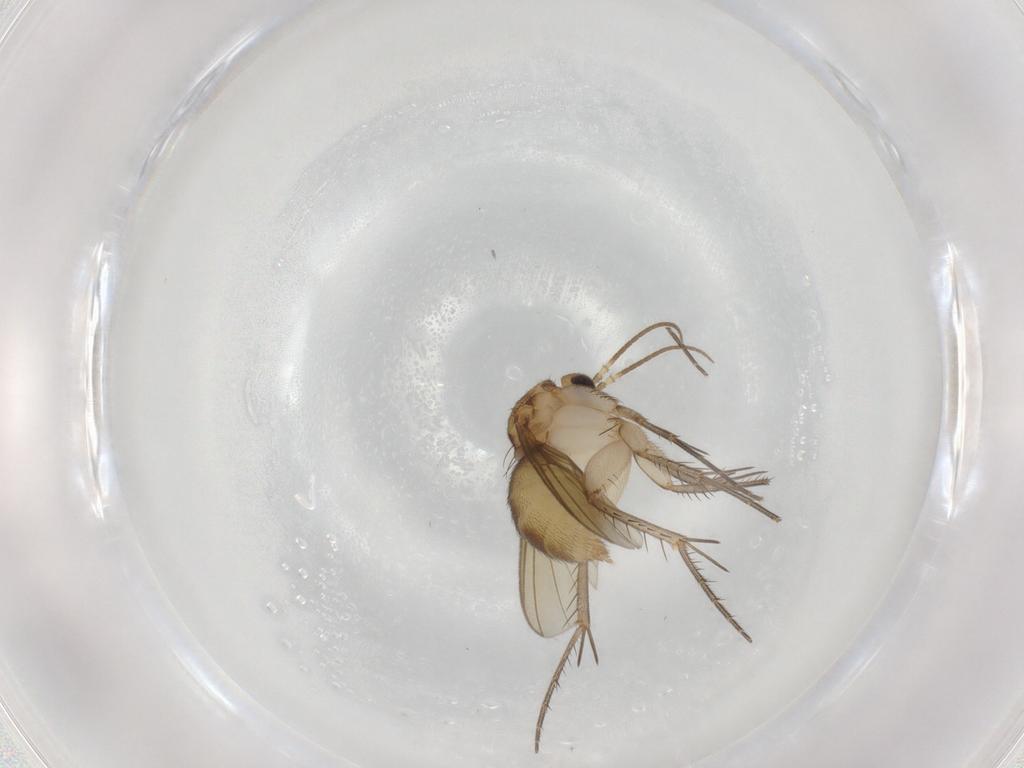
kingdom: Animalia
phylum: Arthropoda
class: Insecta
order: Diptera
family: Mycetophilidae
